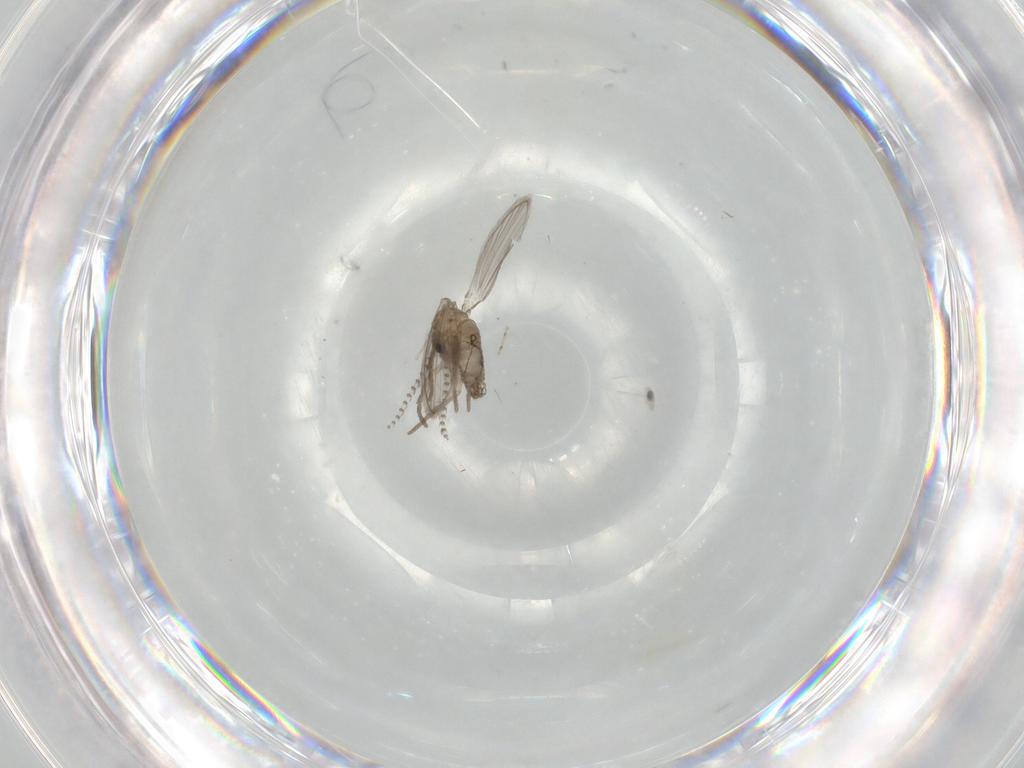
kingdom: Animalia
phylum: Arthropoda
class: Insecta
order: Diptera
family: Psychodidae
